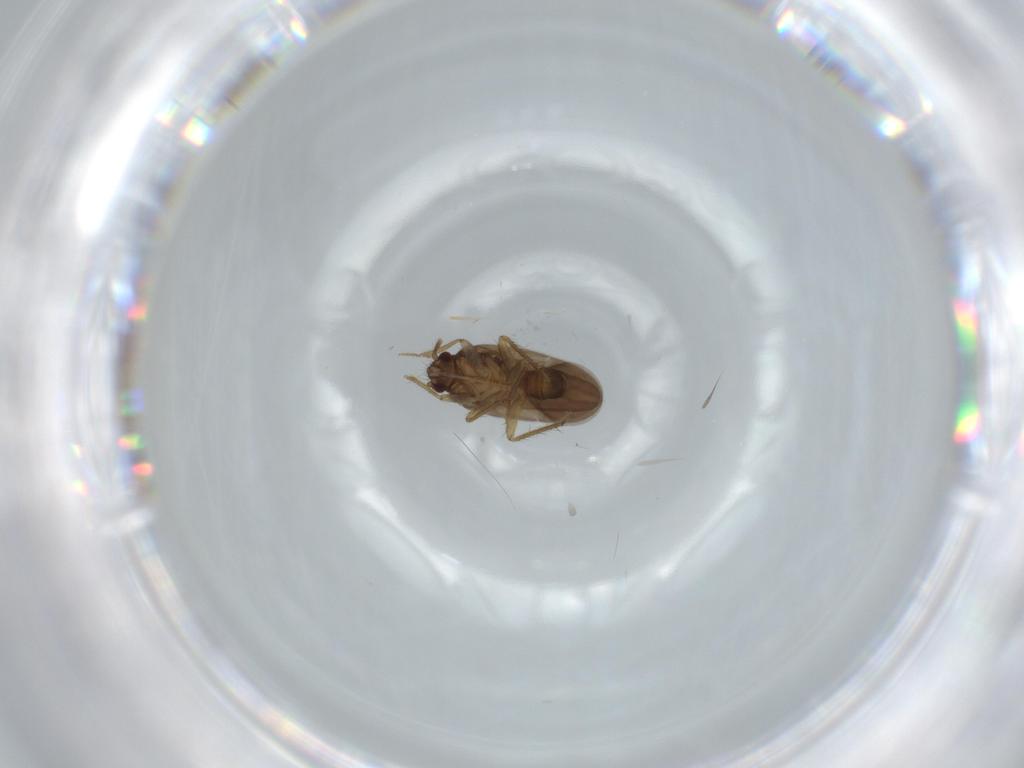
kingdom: Animalia
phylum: Arthropoda
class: Insecta
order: Hemiptera
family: Ceratocombidae
